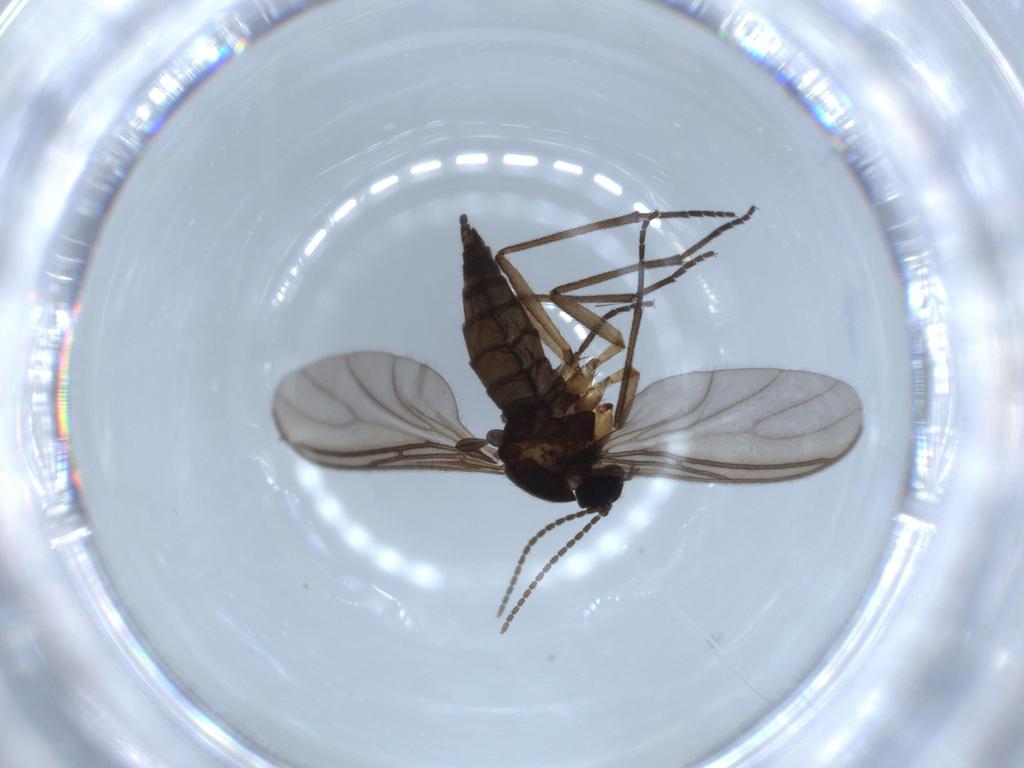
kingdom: Animalia
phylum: Arthropoda
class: Insecta
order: Diptera
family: Sciaridae
